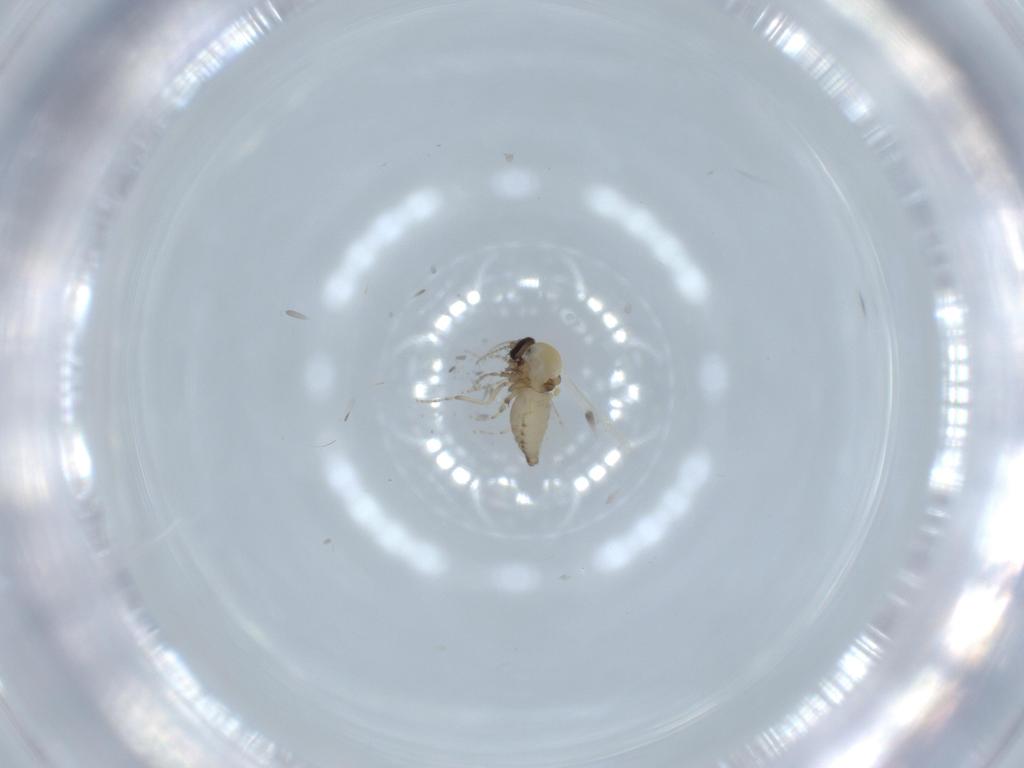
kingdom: Animalia
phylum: Arthropoda
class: Insecta
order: Diptera
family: Ceratopogonidae
